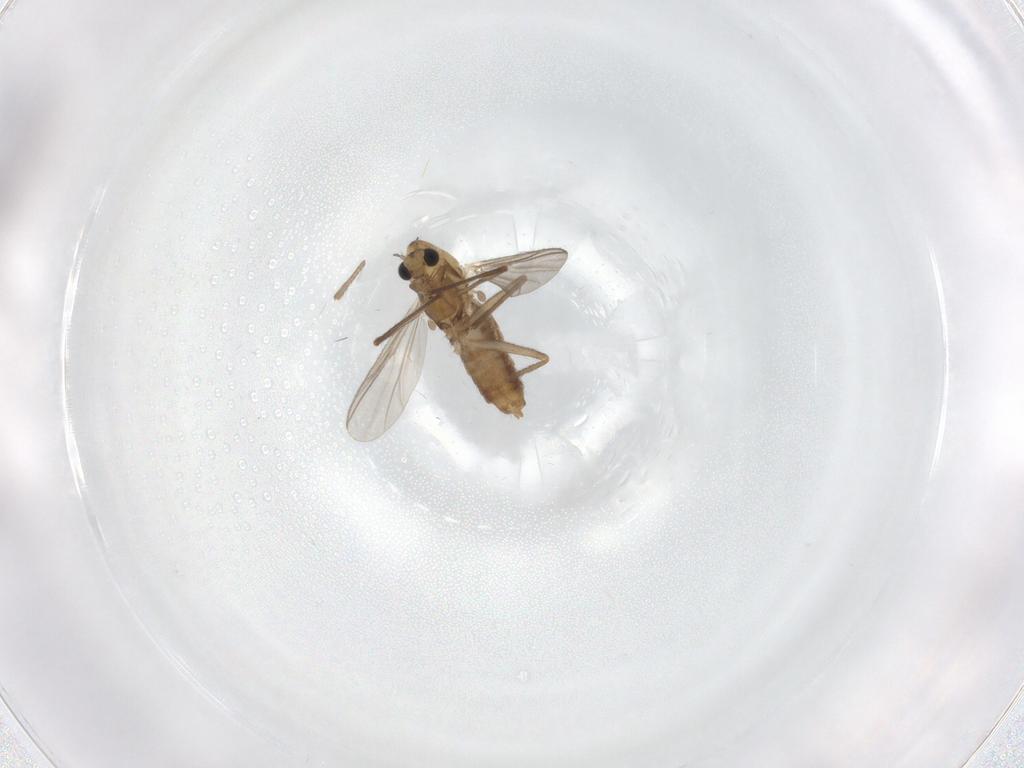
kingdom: Animalia
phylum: Arthropoda
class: Insecta
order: Diptera
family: Chironomidae
